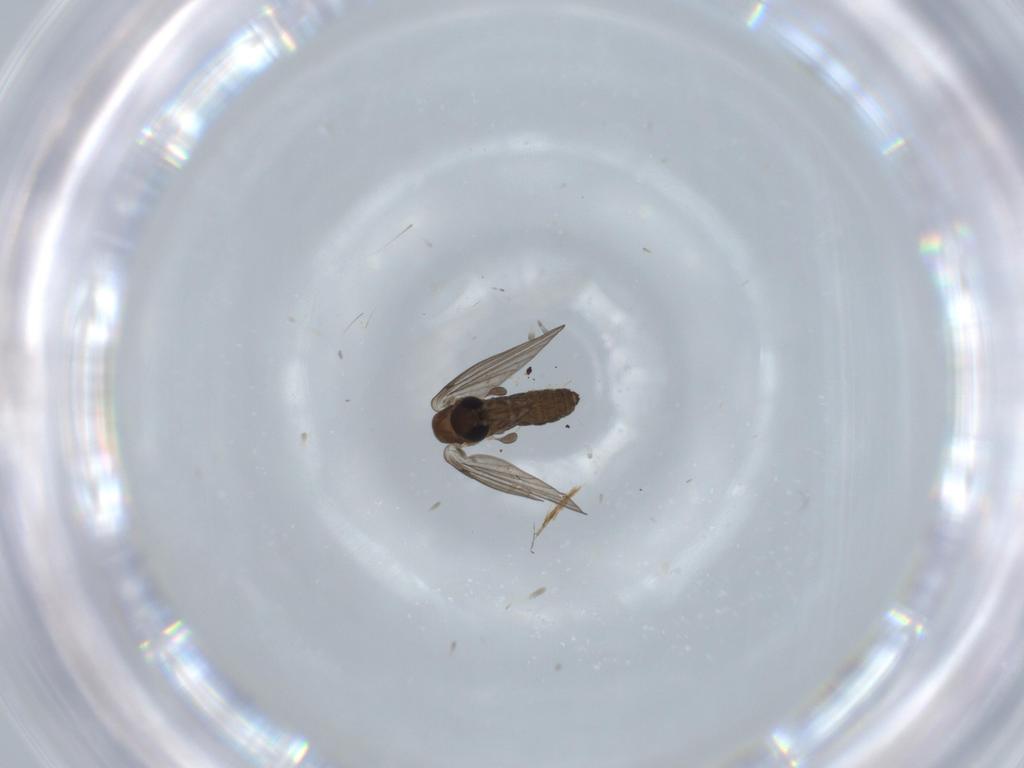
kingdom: Animalia
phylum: Arthropoda
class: Insecta
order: Diptera
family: Psychodidae
